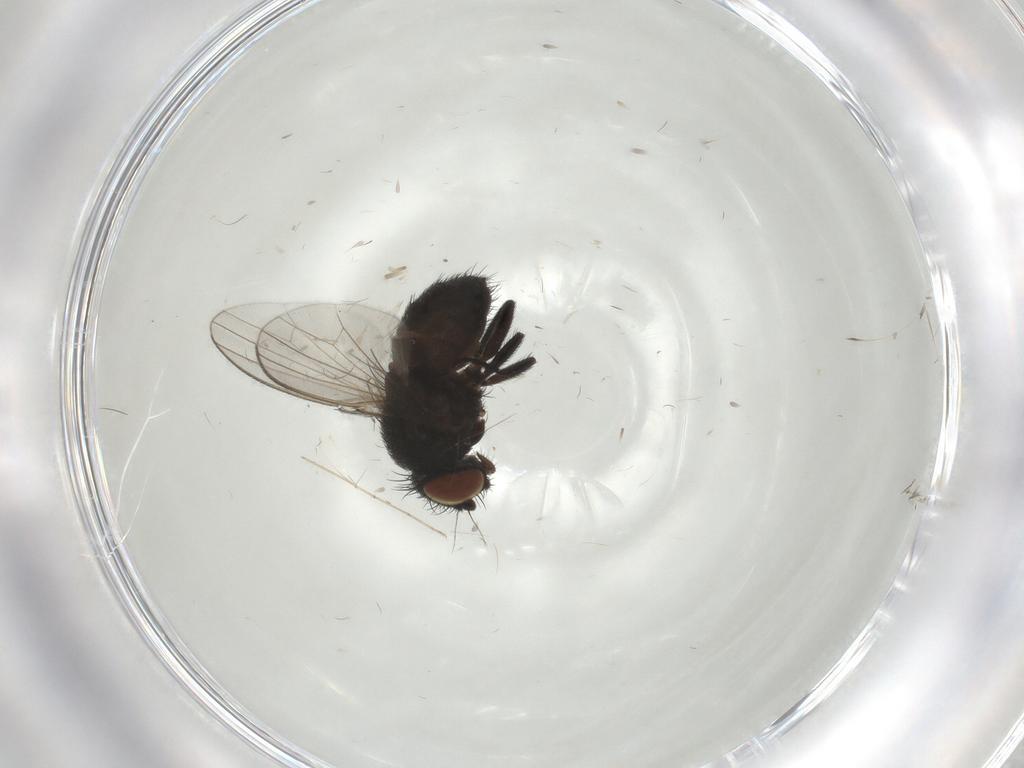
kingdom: Animalia
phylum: Arthropoda
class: Insecta
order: Diptera
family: Milichiidae
